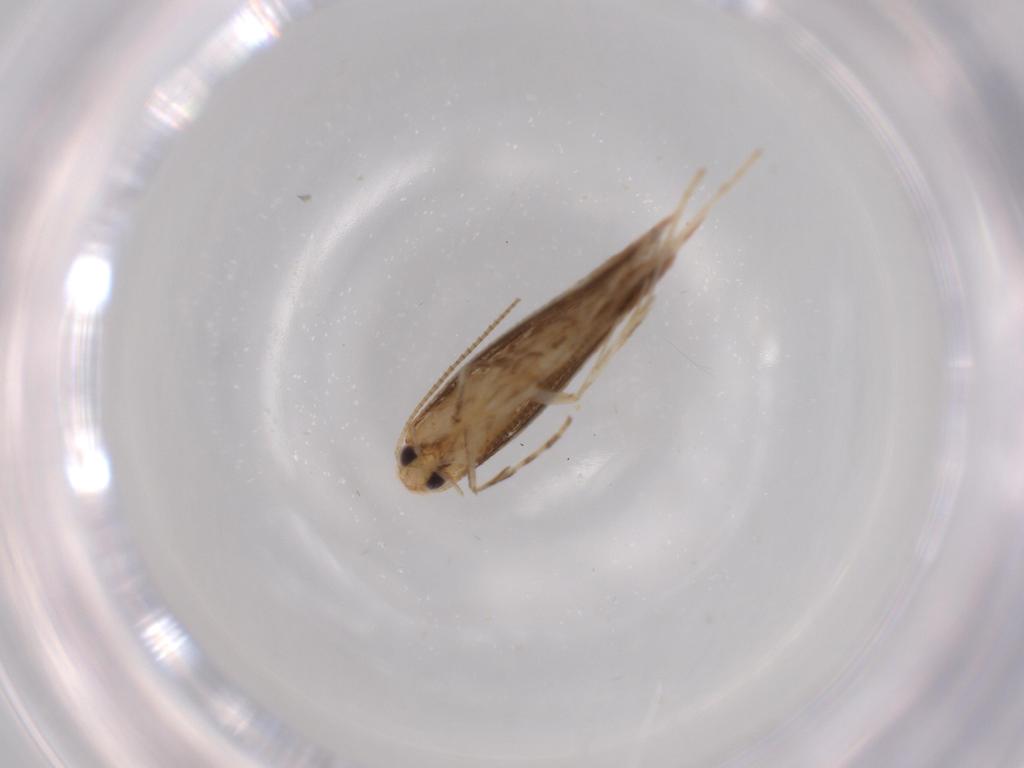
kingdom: Animalia
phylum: Arthropoda
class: Insecta
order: Lepidoptera
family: Gracillariidae
